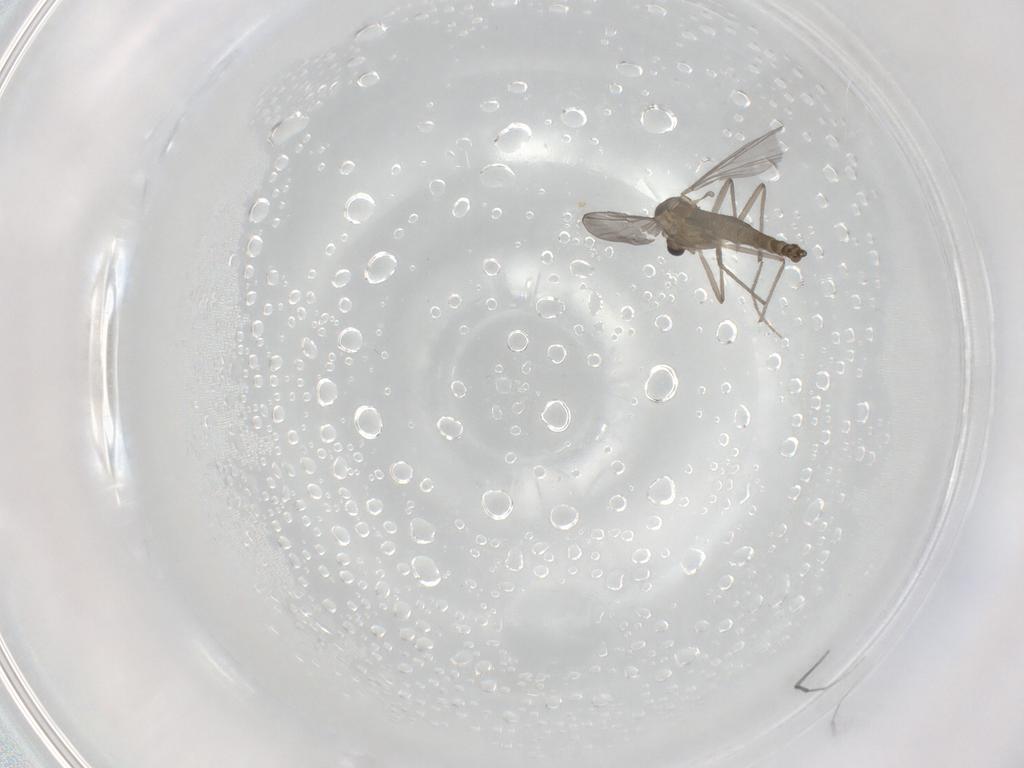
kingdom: Animalia
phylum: Arthropoda
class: Insecta
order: Diptera
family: Chironomidae
